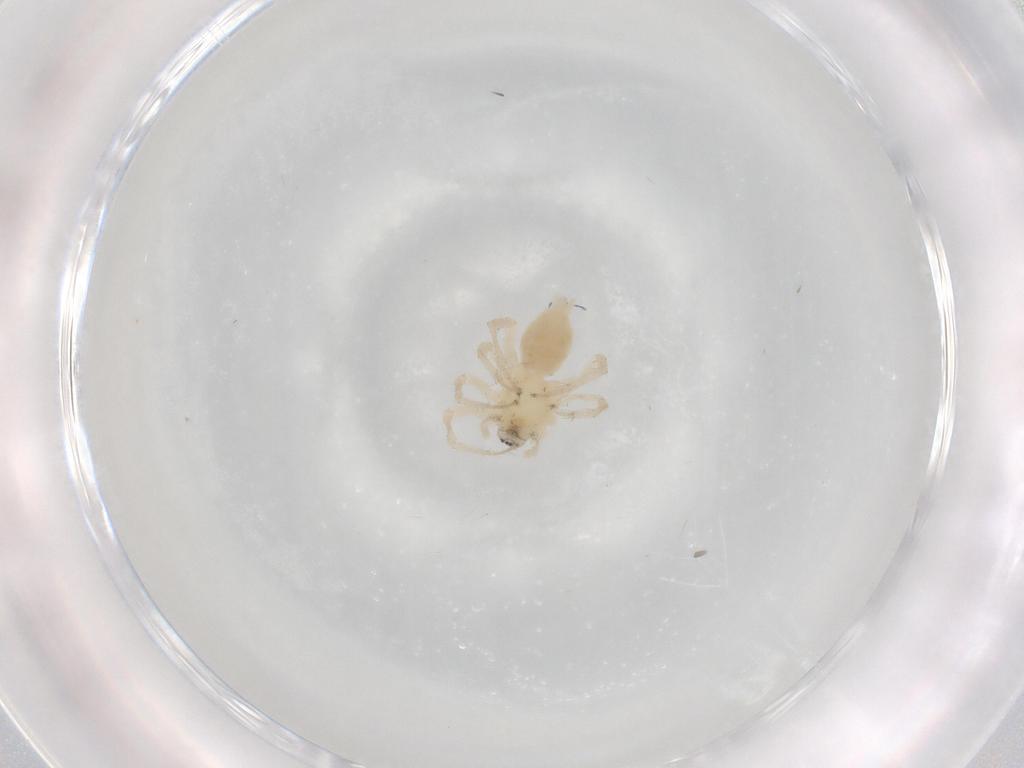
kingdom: Animalia
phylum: Arthropoda
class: Arachnida
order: Araneae
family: Anyphaenidae
